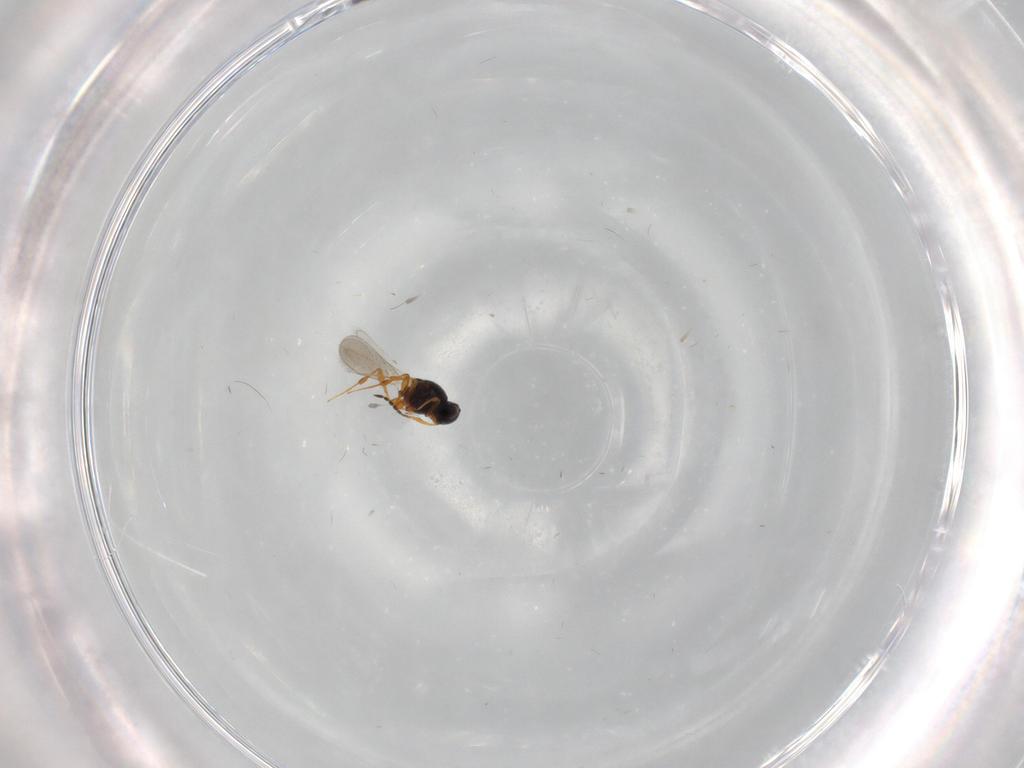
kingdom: Animalia
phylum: Arthropoda
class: Insecta
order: Hymenoptera
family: Platygastridae
